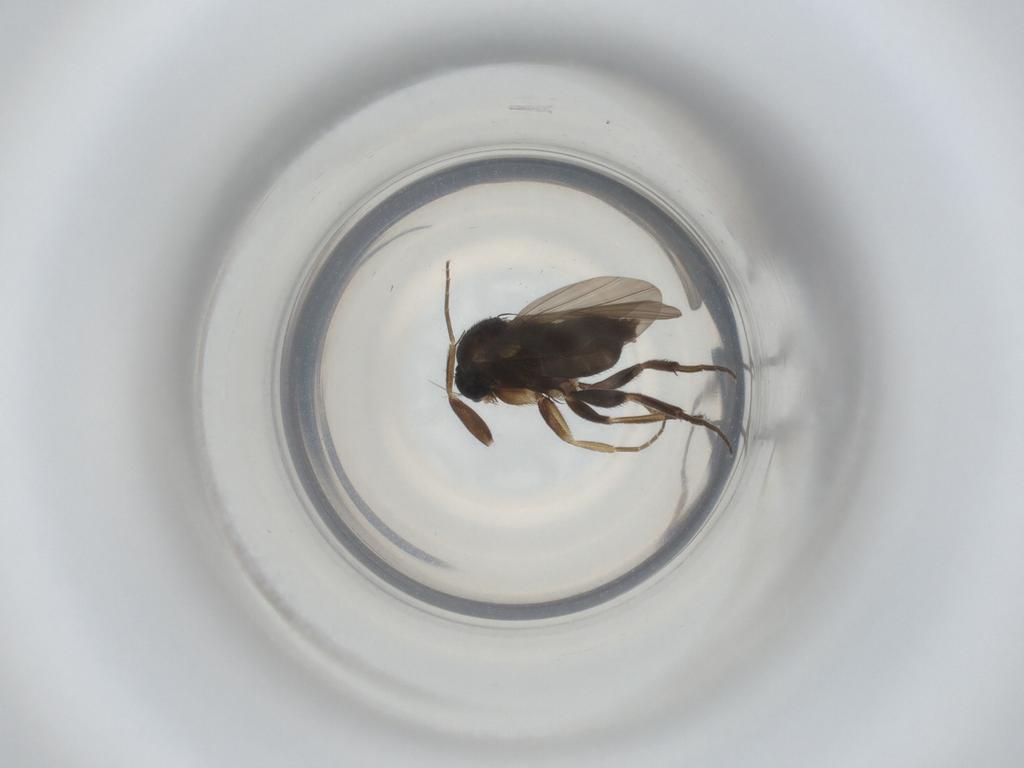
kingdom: Animalia
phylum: Arthropoda
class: Insecta
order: Diptera
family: Phoridae
